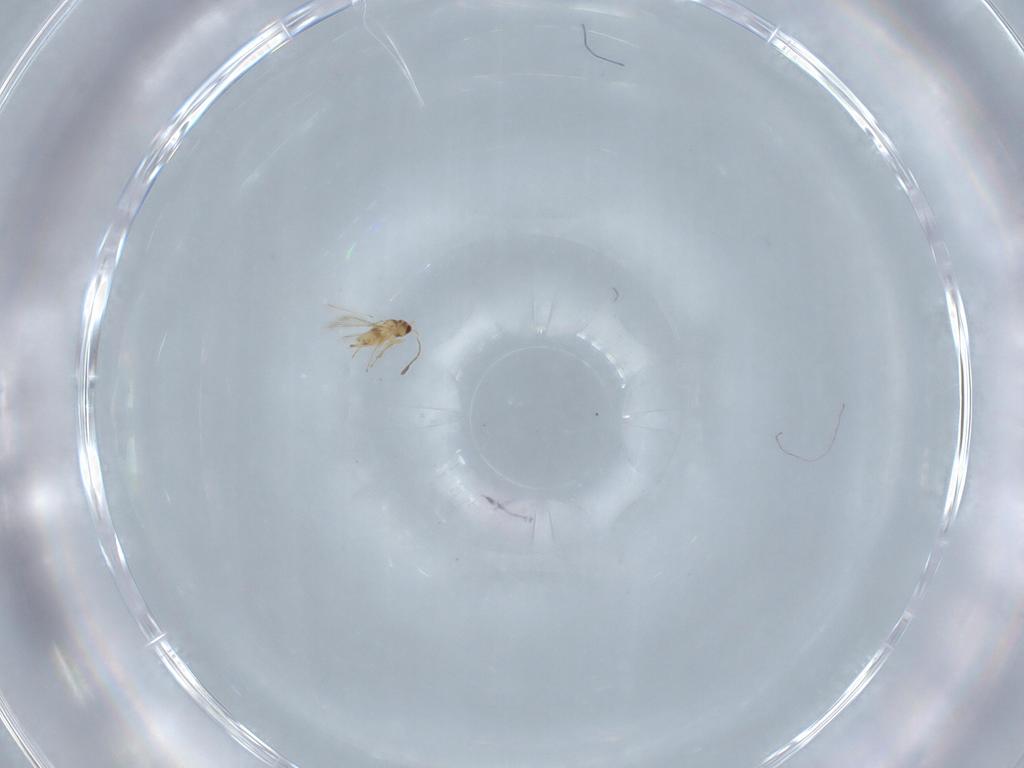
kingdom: Animalia
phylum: Arthropoda
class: Insecta
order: Hymenoptera
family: Mymaridae
